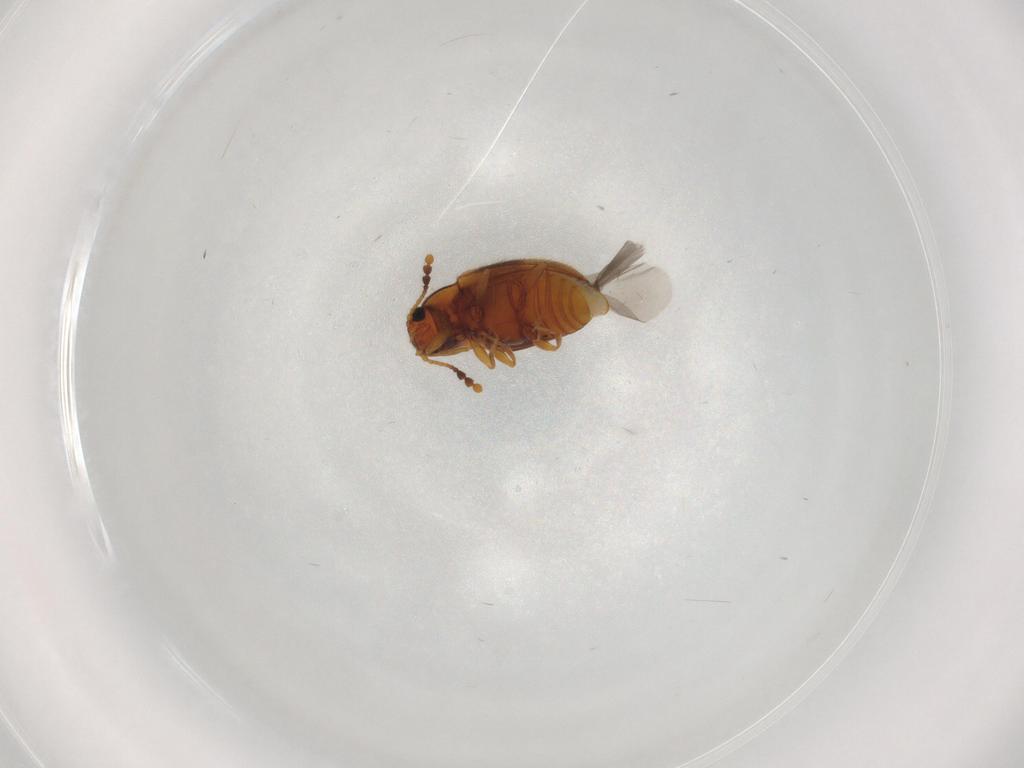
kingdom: Animalia
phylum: Arthropoda
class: Insecta
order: Coleoptera
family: Erotylidae
